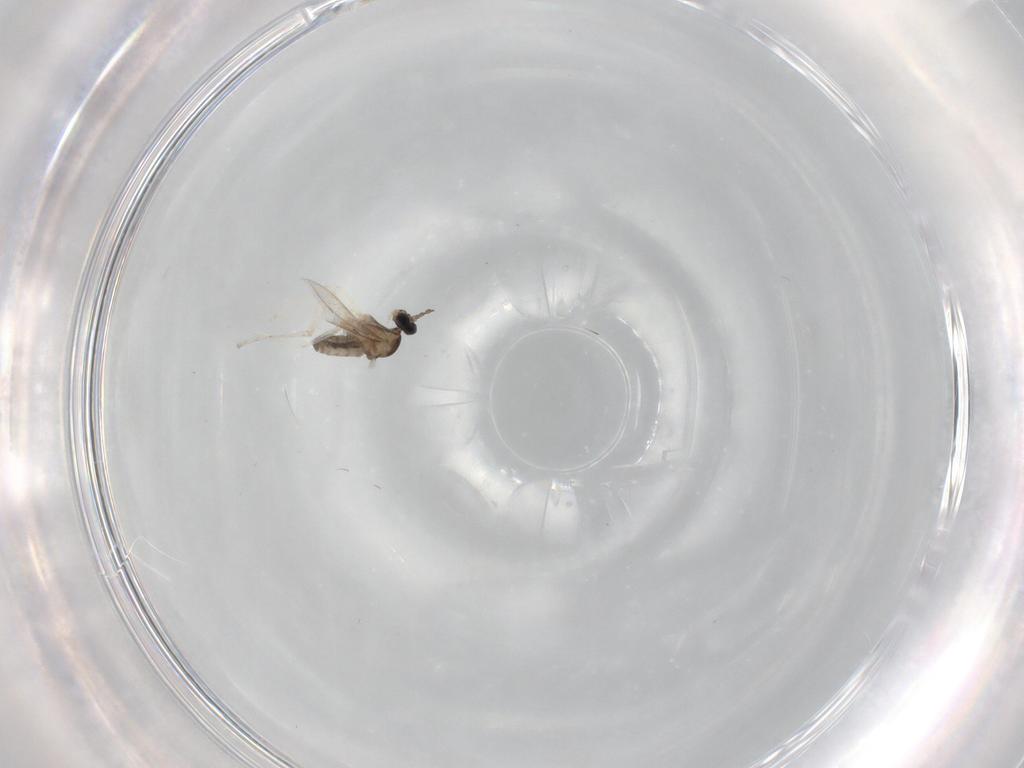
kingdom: Animalia
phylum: Arthropoda
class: Insecta
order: Diptera
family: Cecidomyiidae
